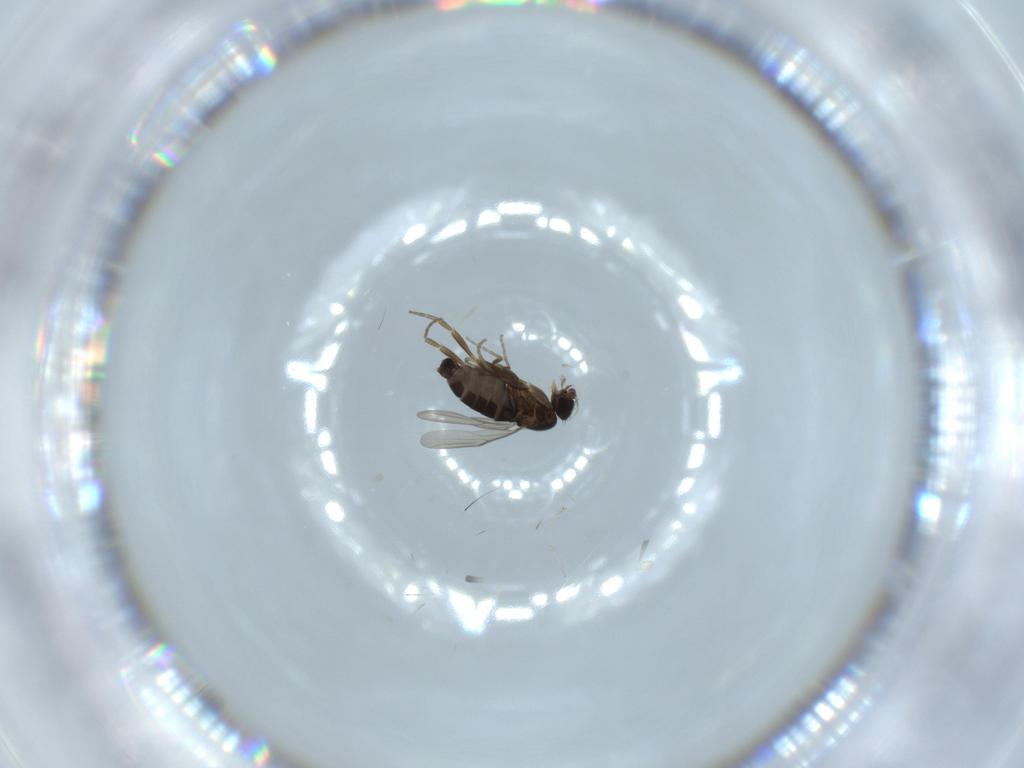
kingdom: Animalia
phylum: Arthropoda
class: Insecta
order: Diptera
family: Phoridae
